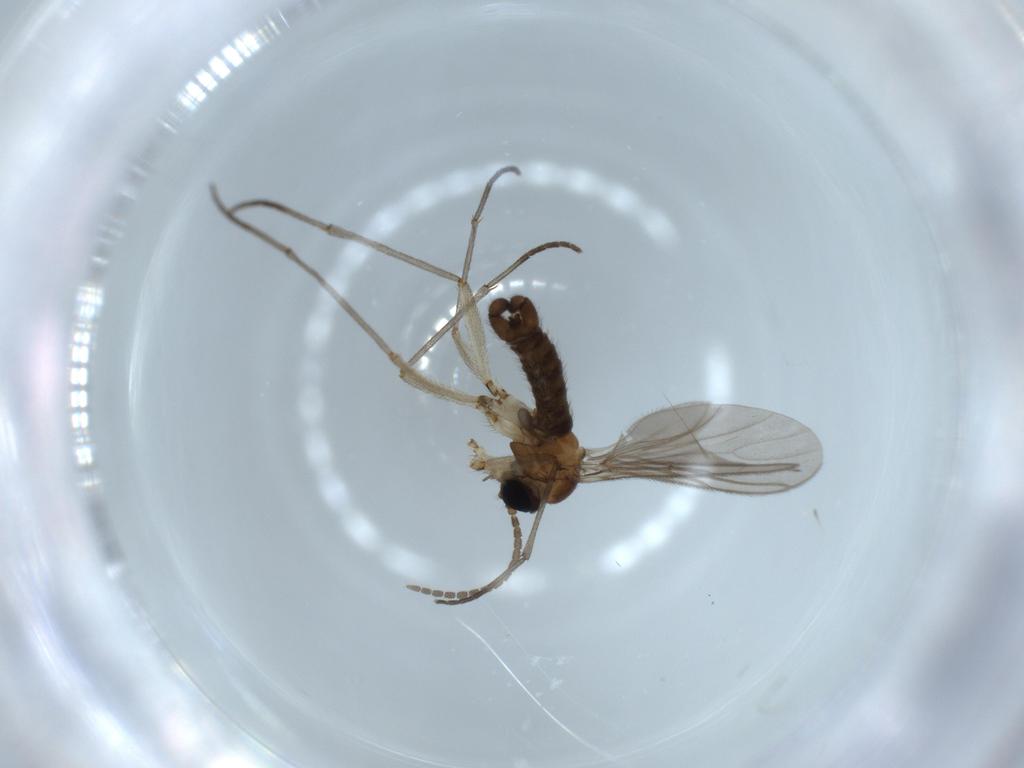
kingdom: Animalia
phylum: Arthropoda
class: Insecta
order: Diptera
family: Sciaridae
